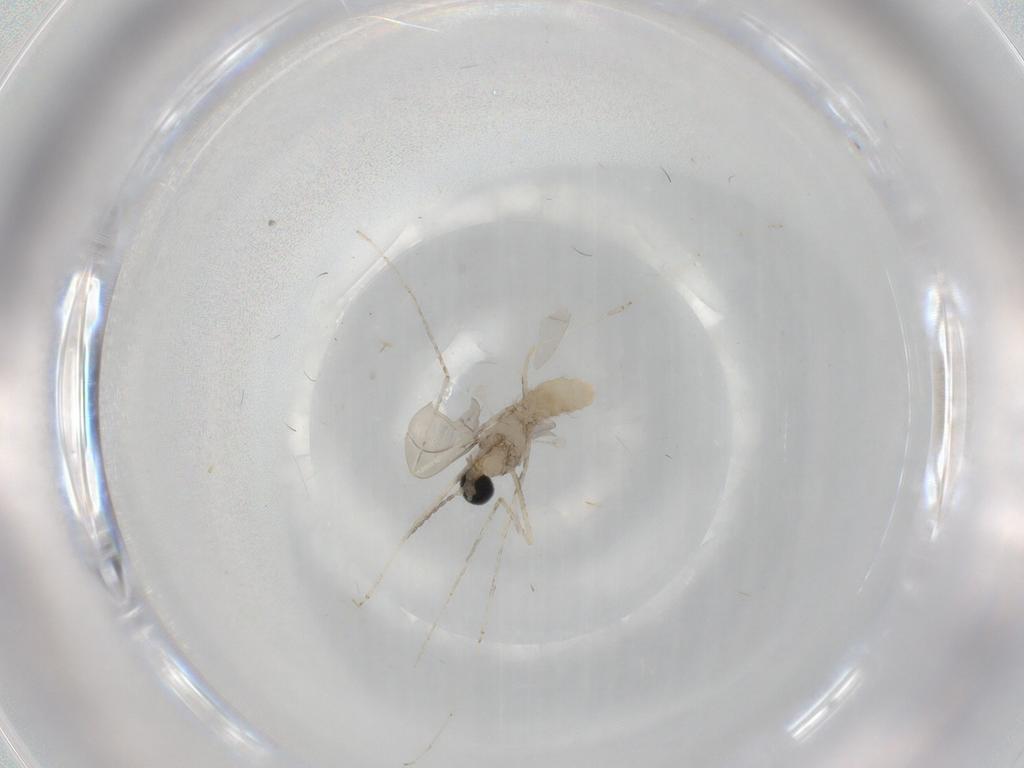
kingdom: Animalia
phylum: Arthropoda
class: Insecta
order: Diptera
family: Cecidomyiidae
